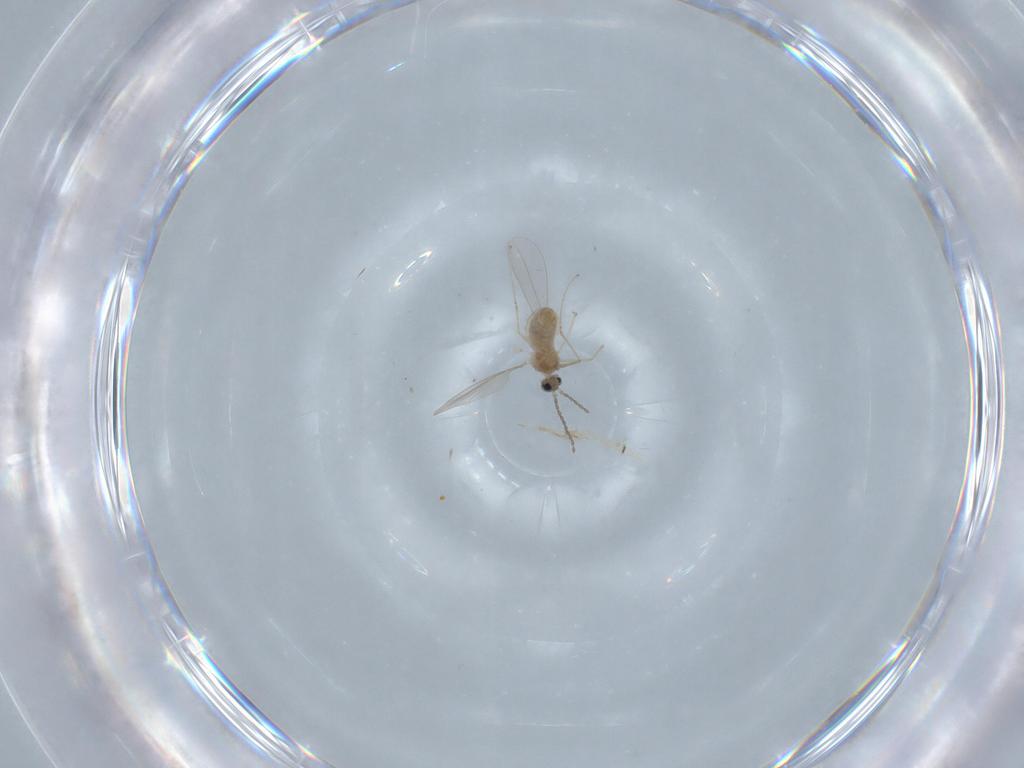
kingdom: Animalia
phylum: Arthropoda
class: Insecta
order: Diptera
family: Cecidomyiidae
